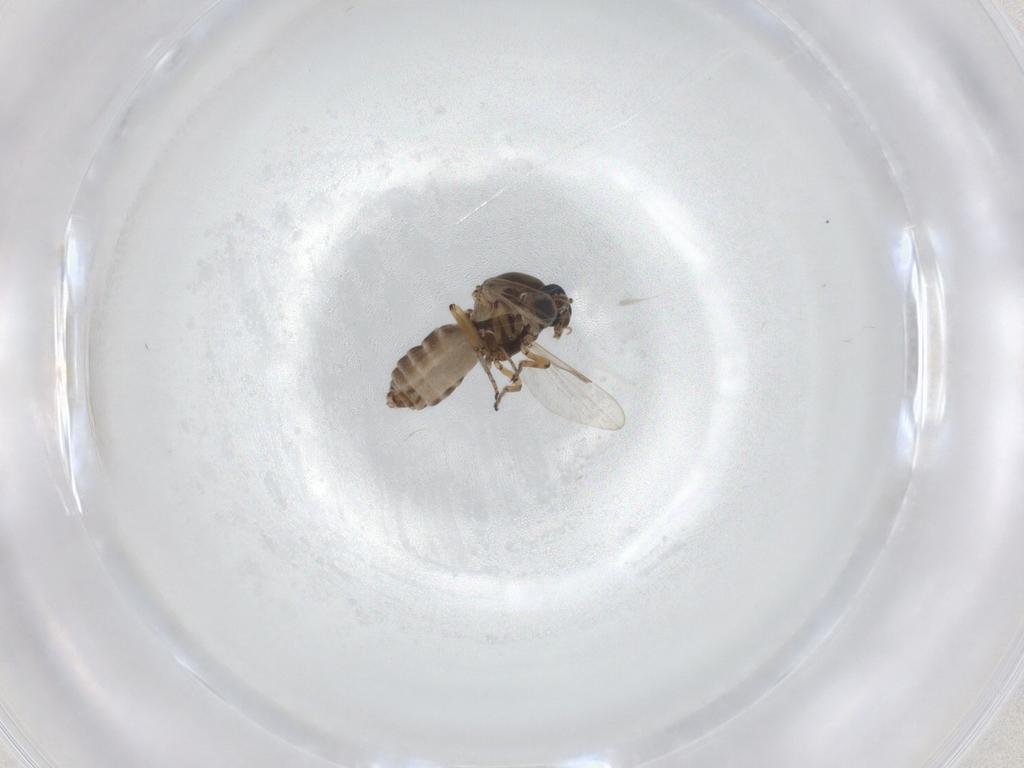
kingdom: Animalia
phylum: Arthropoda
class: Insecta
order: Diptera
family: Ceratopogonidae
